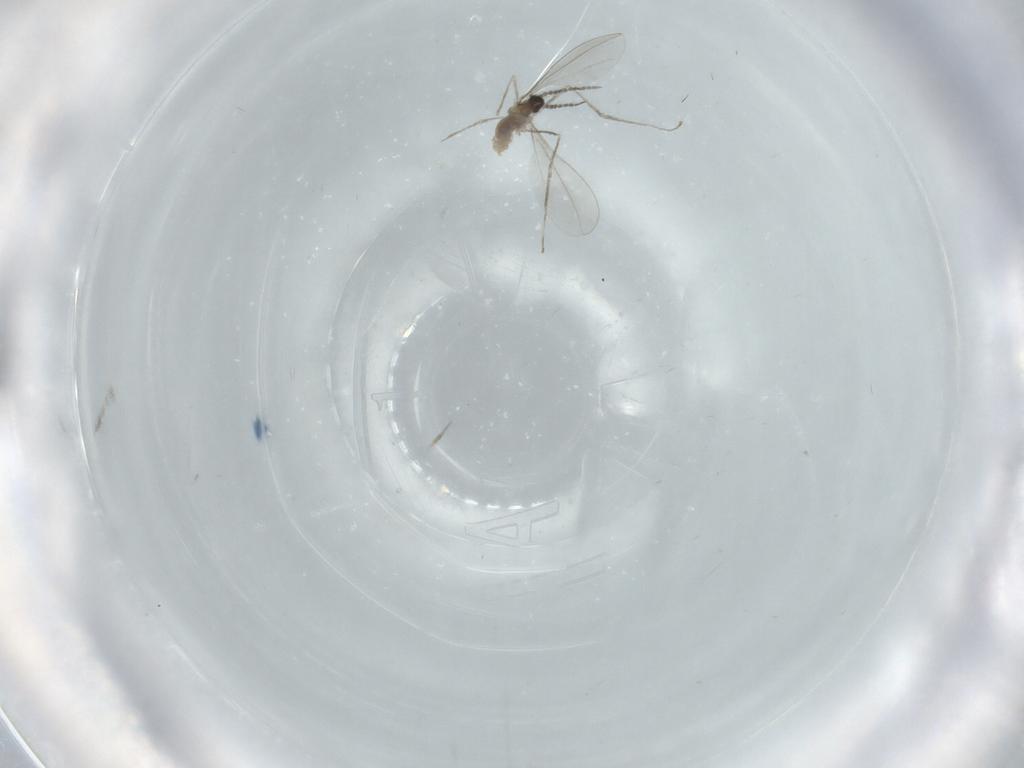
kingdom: Animalia
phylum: Arthropoda
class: Insecta
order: Diptera
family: Cecidomyiidae
